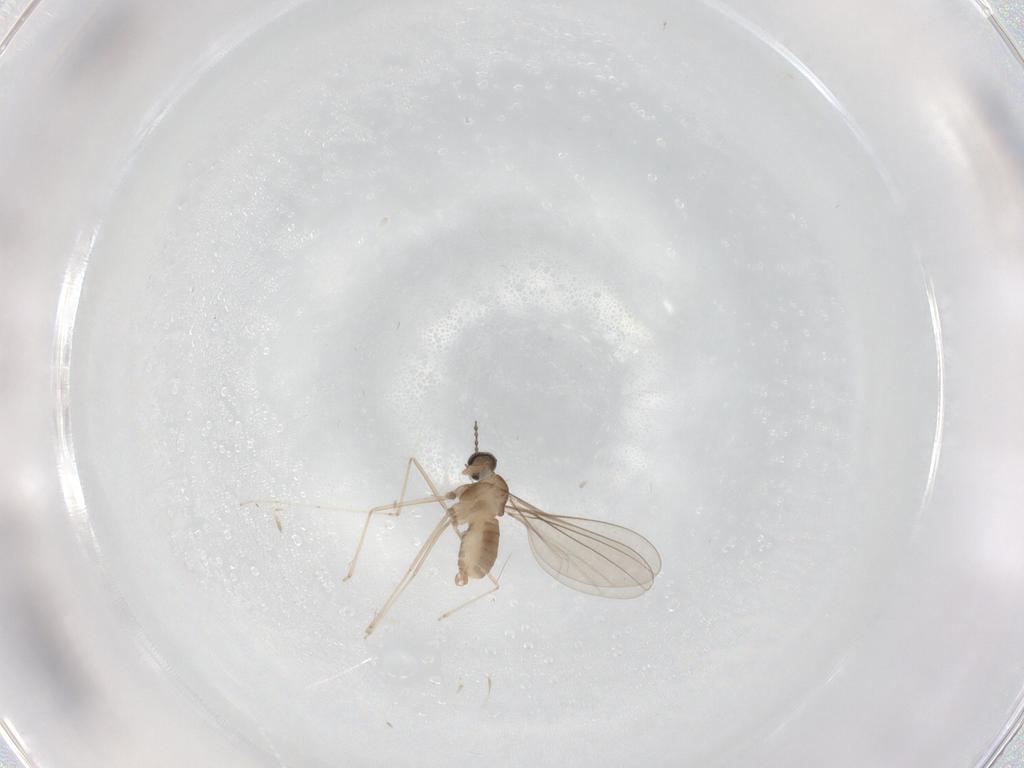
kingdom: Animalia
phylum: Arthropoda
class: Insecta
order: Diptera
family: Cecidomyiidae
